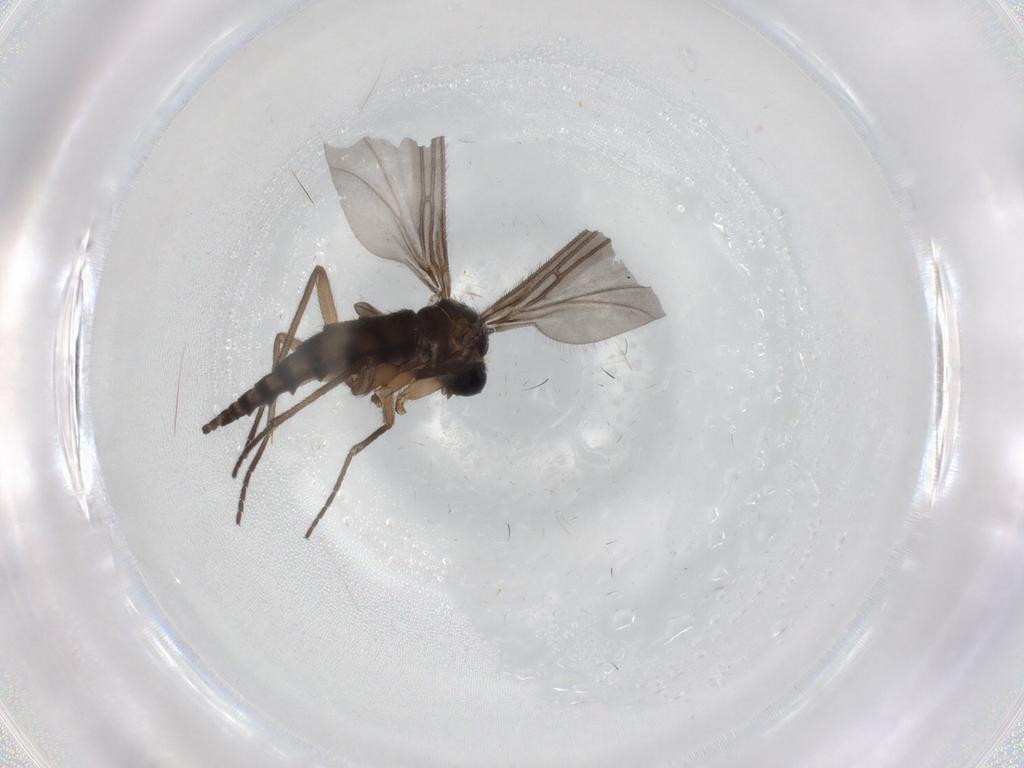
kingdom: Animalia
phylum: Arthropoda
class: Insecta
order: Diptera
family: Sciaridae
